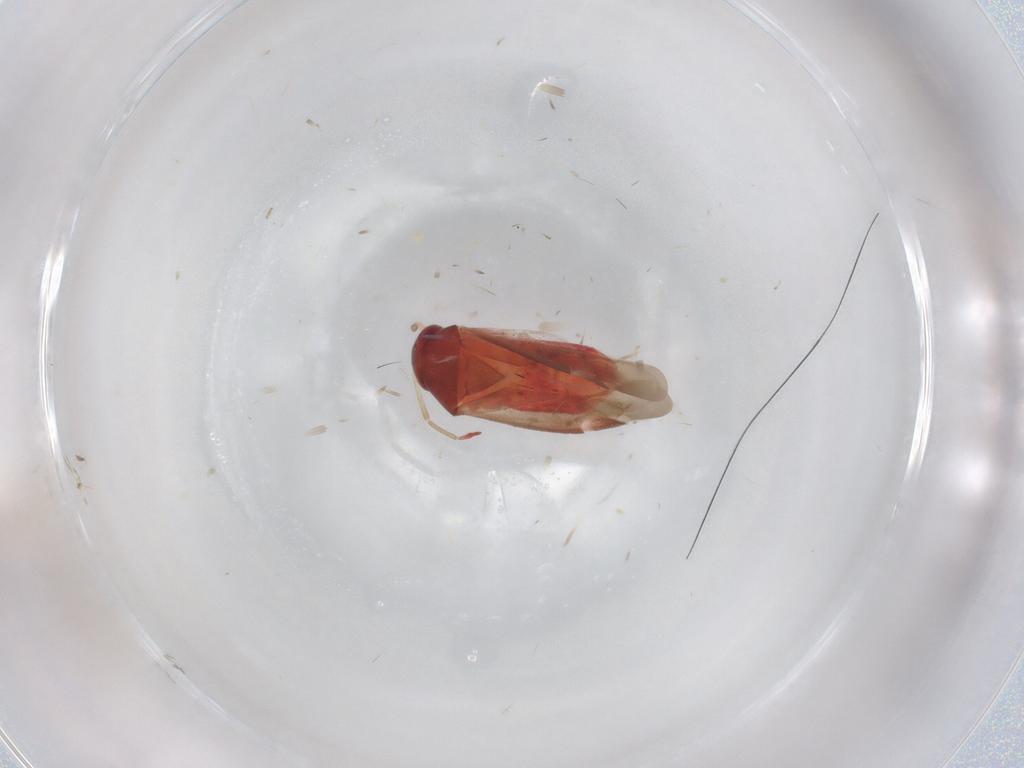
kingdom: Animalia
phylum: Arthropoda
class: Insecta
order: Hemiptera
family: Miridae
